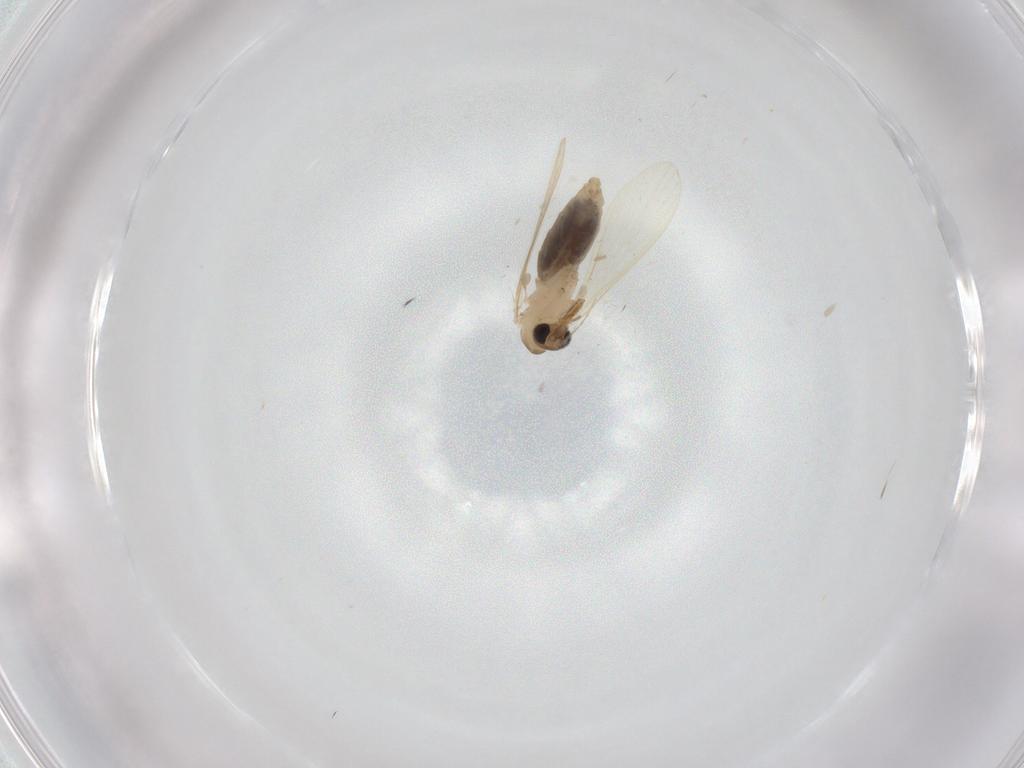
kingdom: Animalia
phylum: Arthropoda
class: Insecta
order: Diptera
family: Psychodidae
